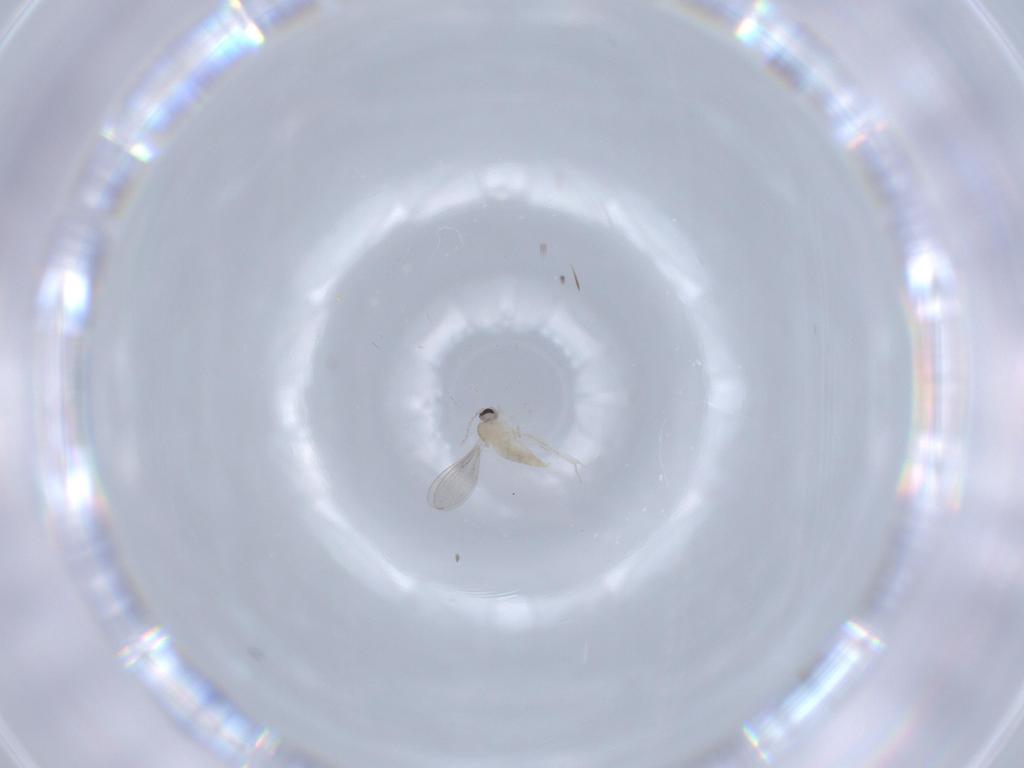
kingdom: Animalia
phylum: Arthropoda
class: Insecta
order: Diptera
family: Cecidomyiidae
